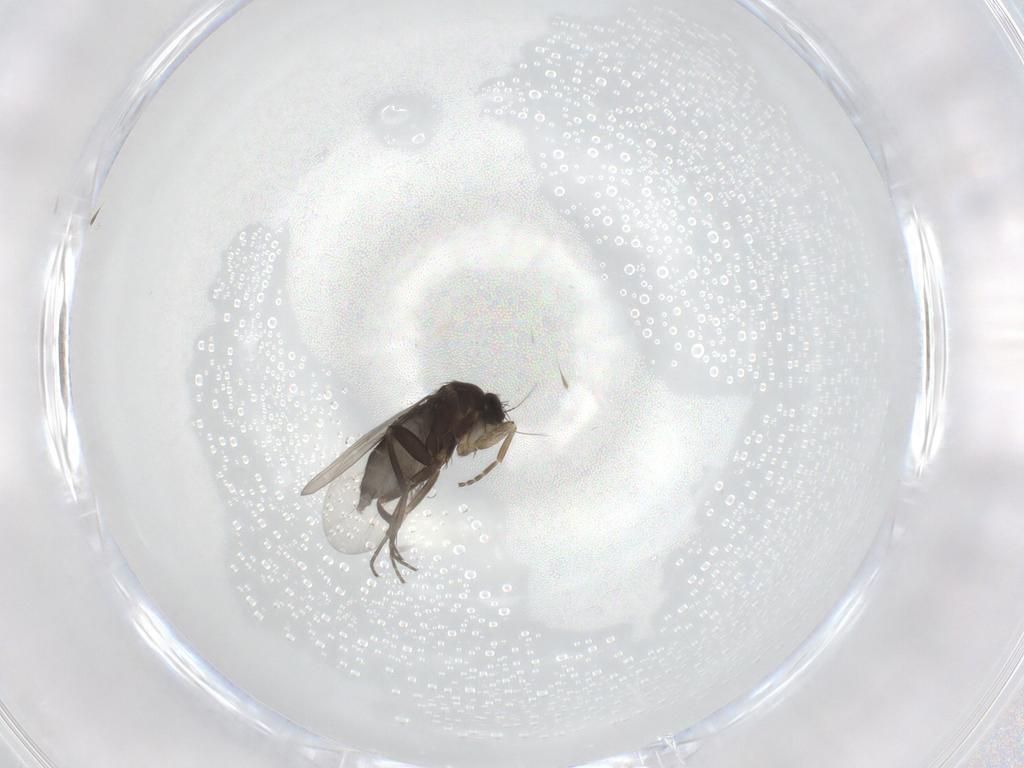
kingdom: Animalia
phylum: Arthropoda
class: Insecta
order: Diptera
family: Phoridae
